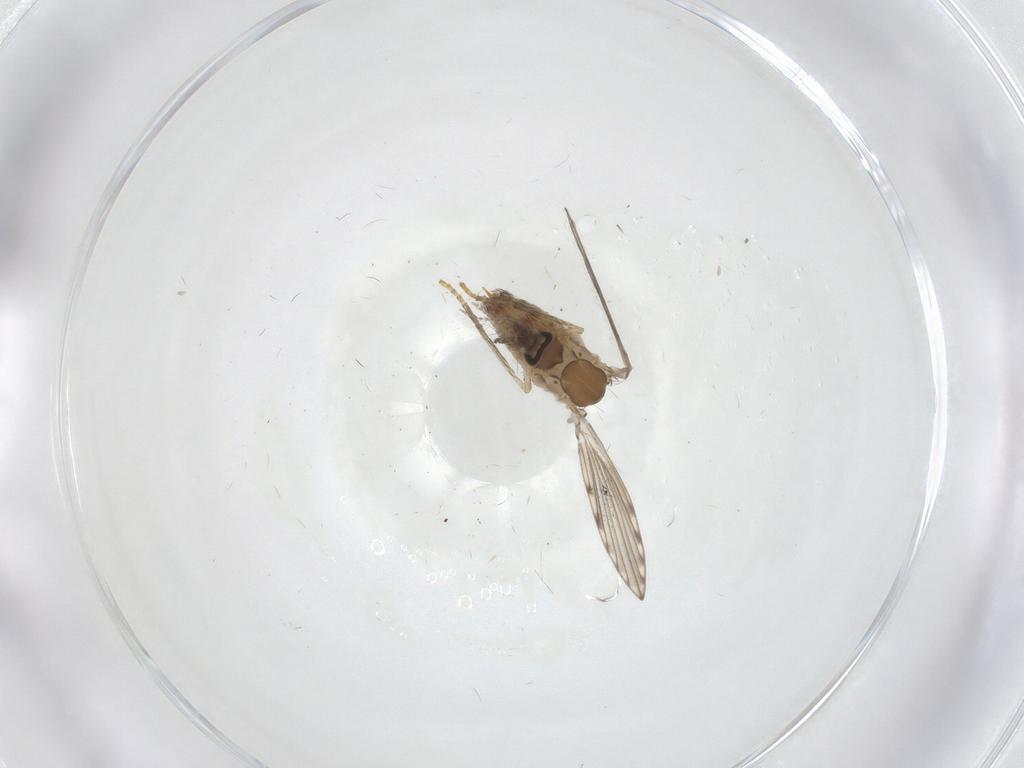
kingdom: Animalia
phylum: Arthropoda
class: Insecta
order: Diptera
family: Psychodidae
